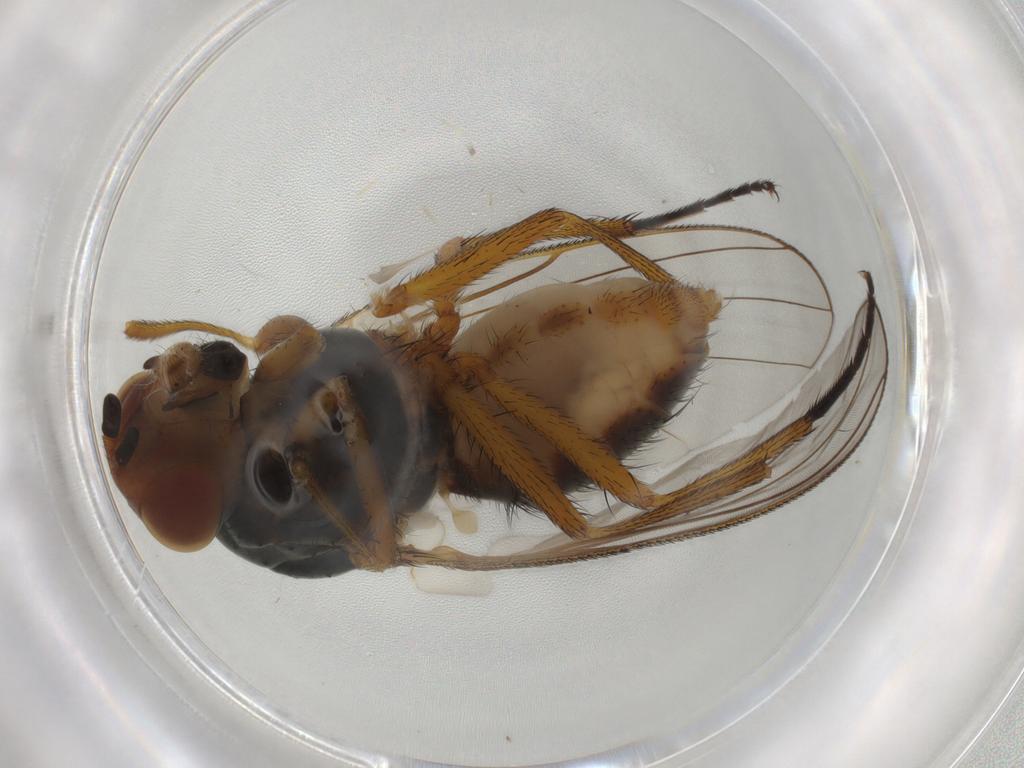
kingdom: Animalia
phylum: Arthropoda
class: Insecta
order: Diptera
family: Anthomyiidae
